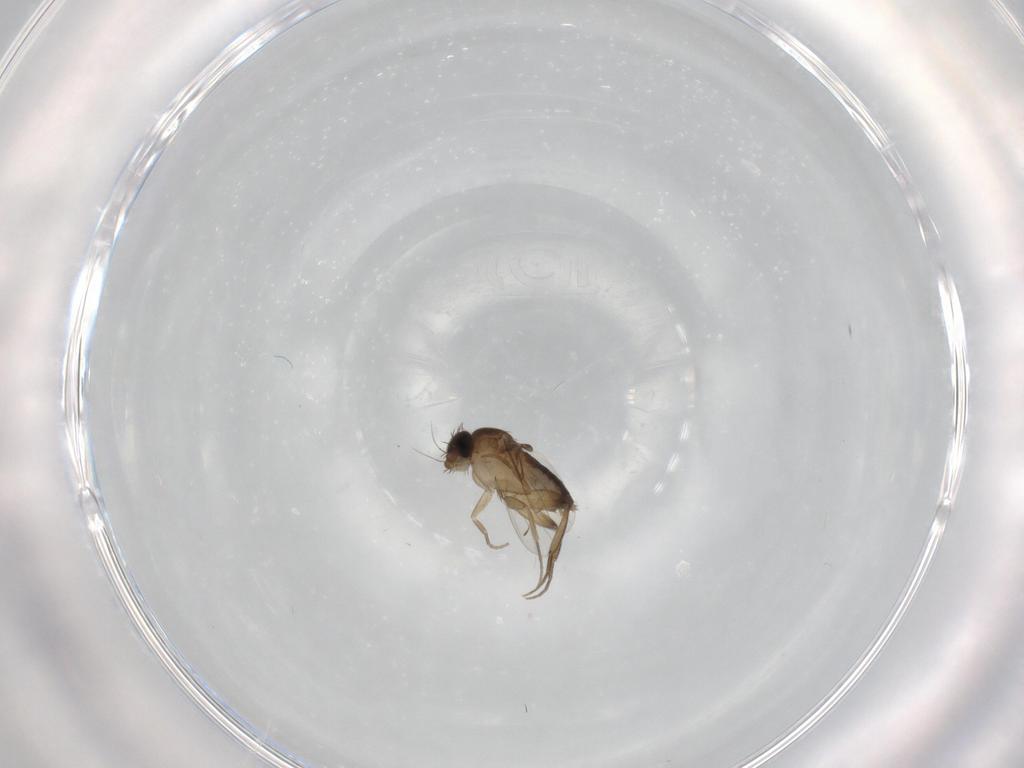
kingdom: Animalia
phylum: Arthropoda
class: Insecta
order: Diptera
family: Phoridae
